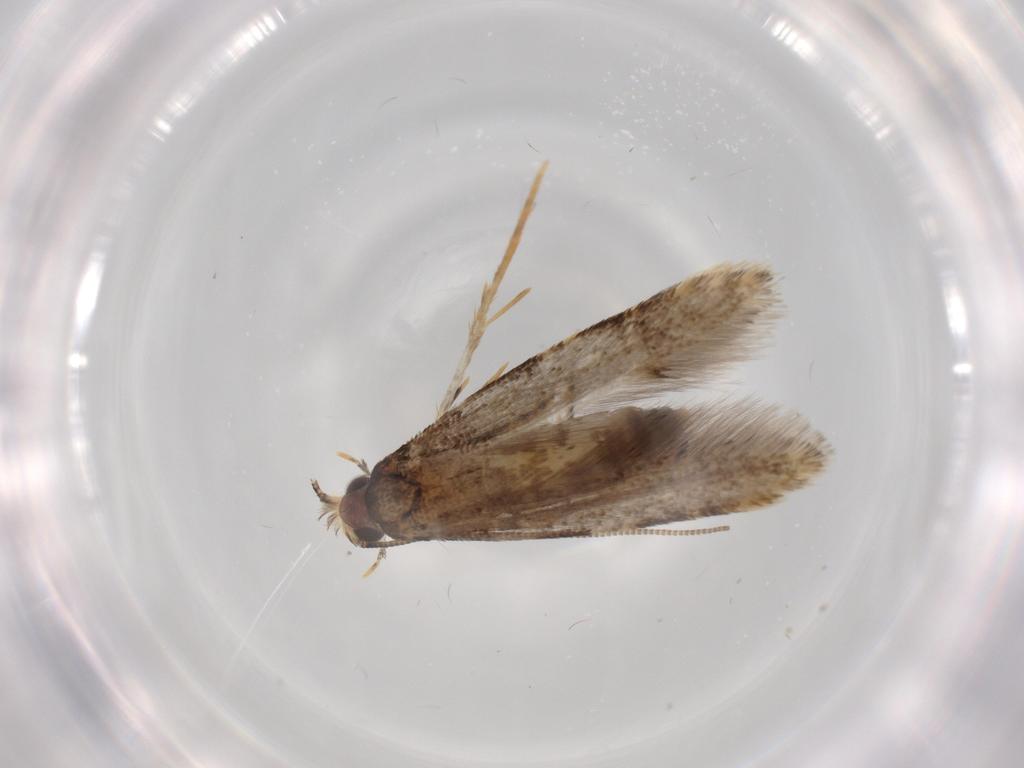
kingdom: Animalia
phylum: Arthropoda
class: Insecta
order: Lepidoptera
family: Tineidae
